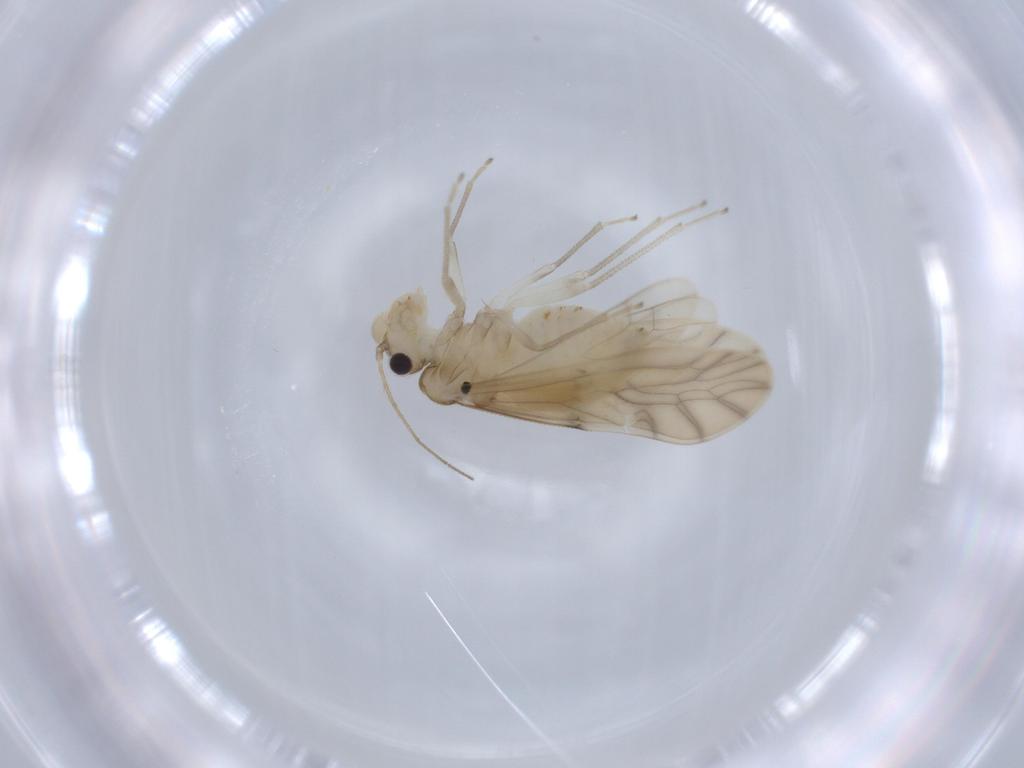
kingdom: Animalia
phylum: Arthropoda
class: Insecta
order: Psocodea
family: Caeciliusidae
